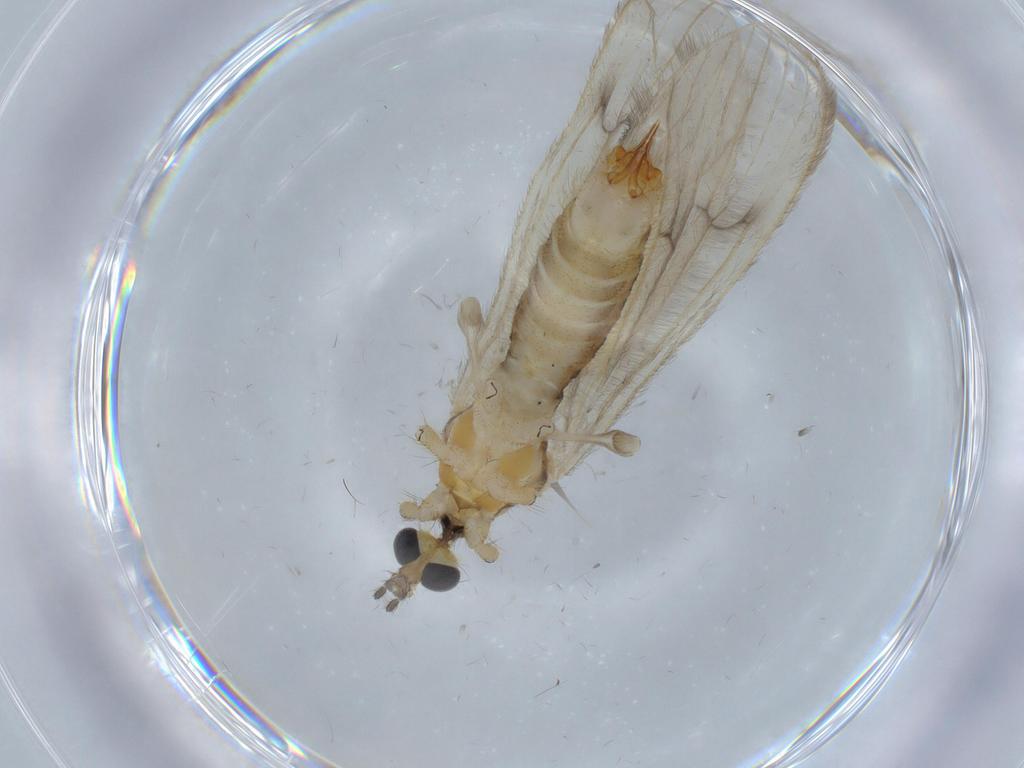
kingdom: Animalia
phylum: Arthropoda
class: Insecta
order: Diptera
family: Limoniidae
